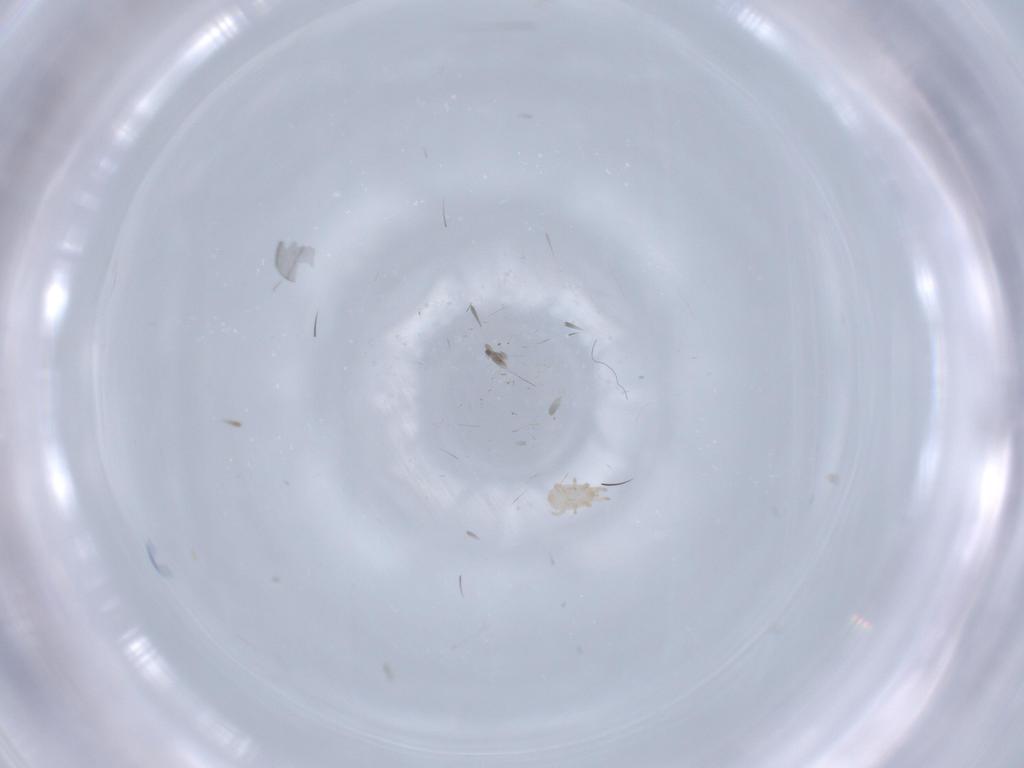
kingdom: Animalia
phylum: Arthropoda
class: Arachnida
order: Mesostigmata
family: Digamasellidae
